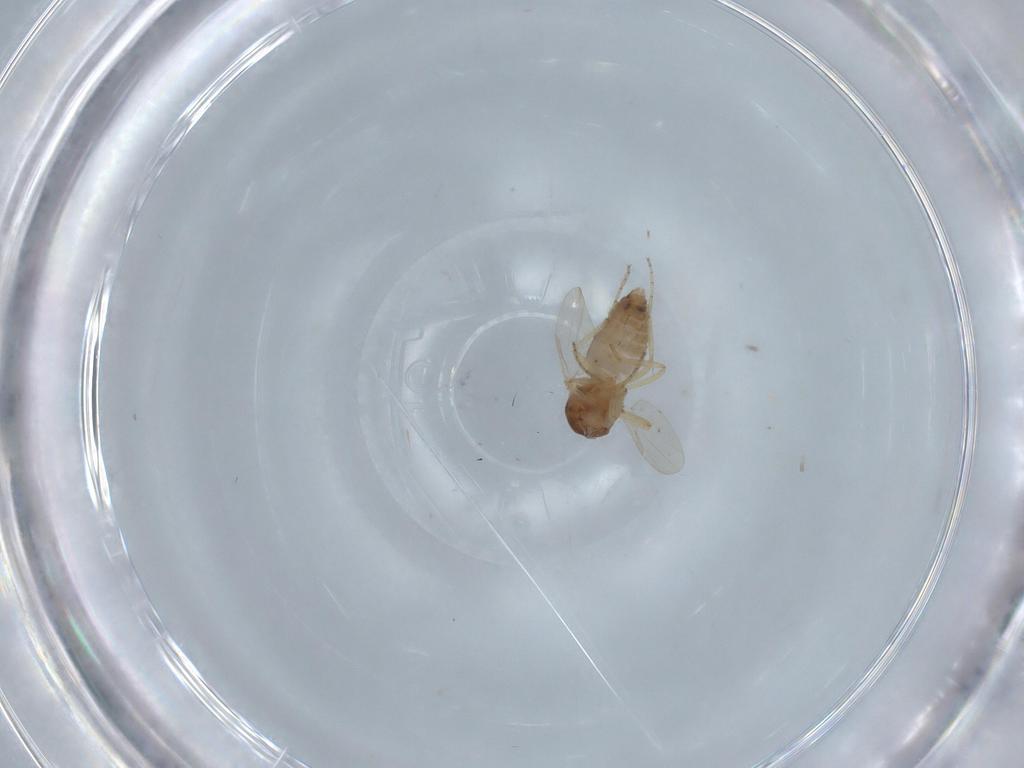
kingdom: Animalia
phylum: Arthropoda
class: Insecta
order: Diptera
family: Ceratopogonidae
